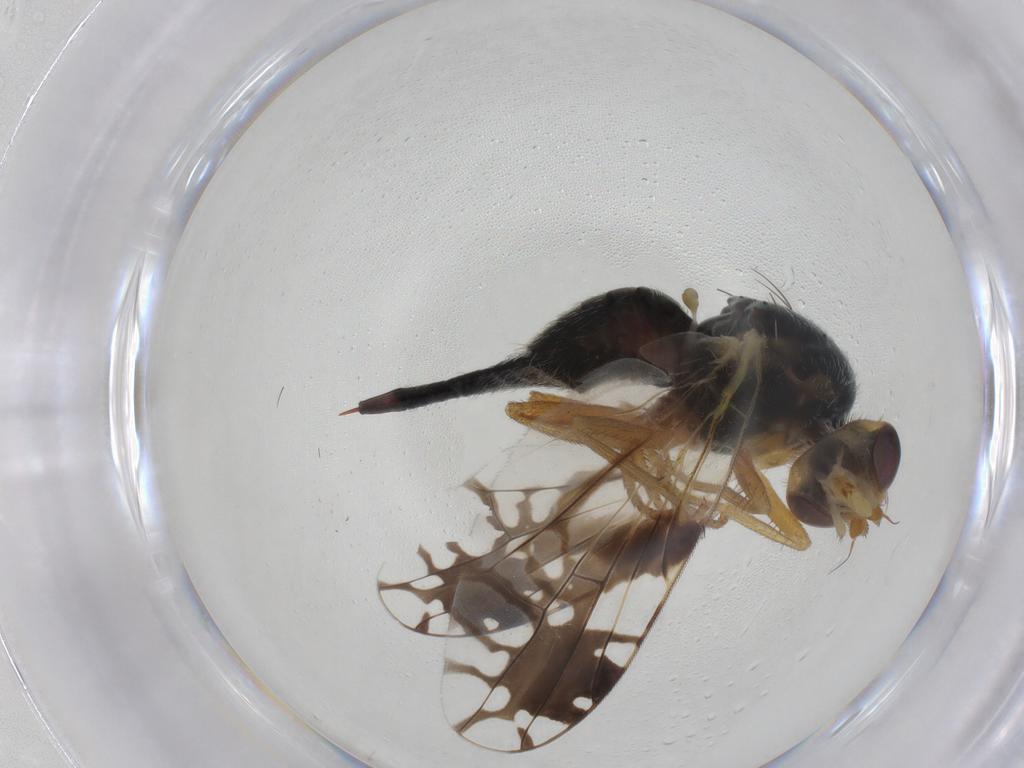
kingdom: Animalia
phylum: Arthropoda
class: Insecta
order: Diptera
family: Tephritidae
